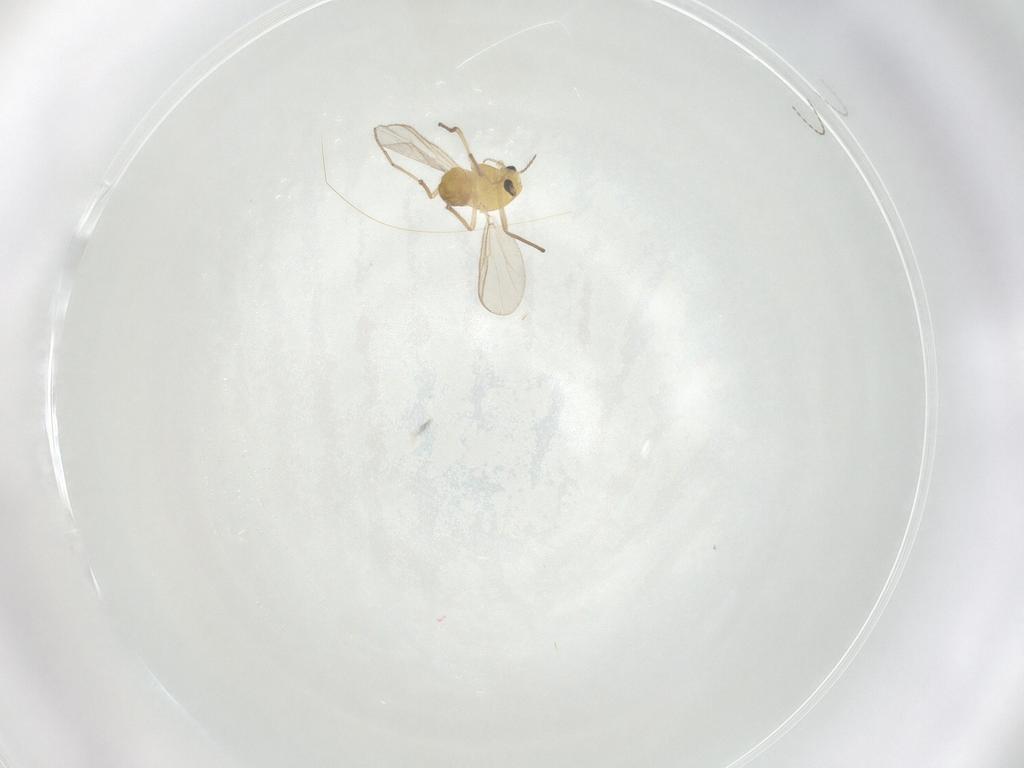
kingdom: Animalia
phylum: Arthropoda
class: Insecta
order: Diptera
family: Chironomidae
